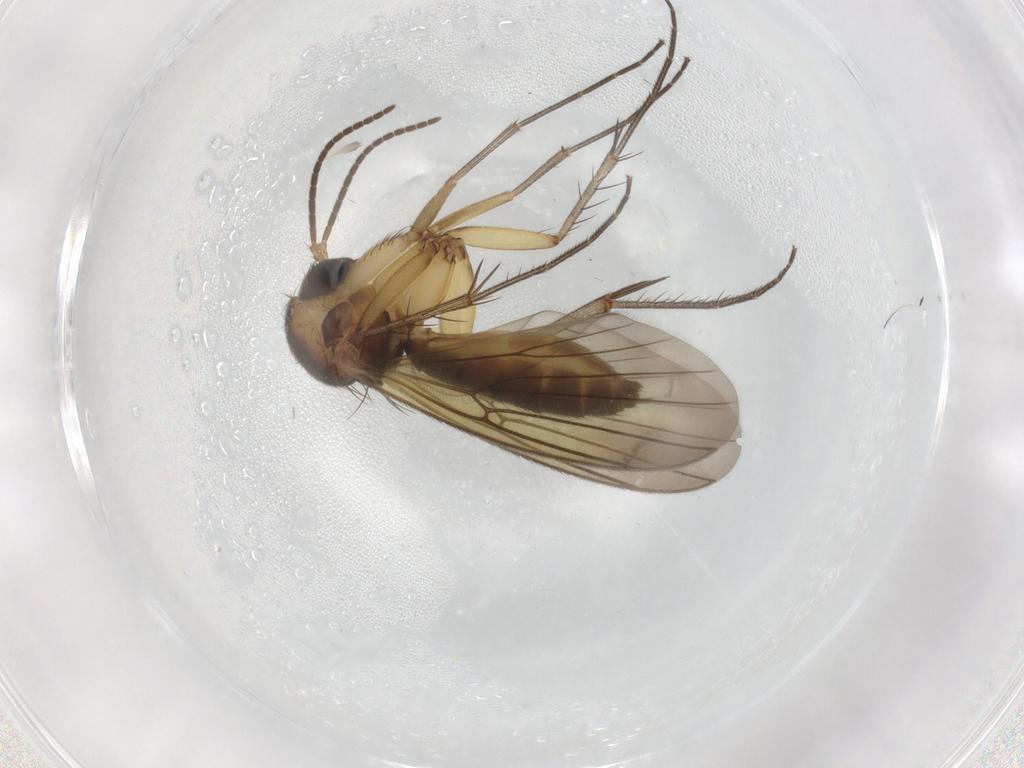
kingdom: Animalia
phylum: Arthropoda
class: Insecta
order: Diptera
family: Mycetophilidae
